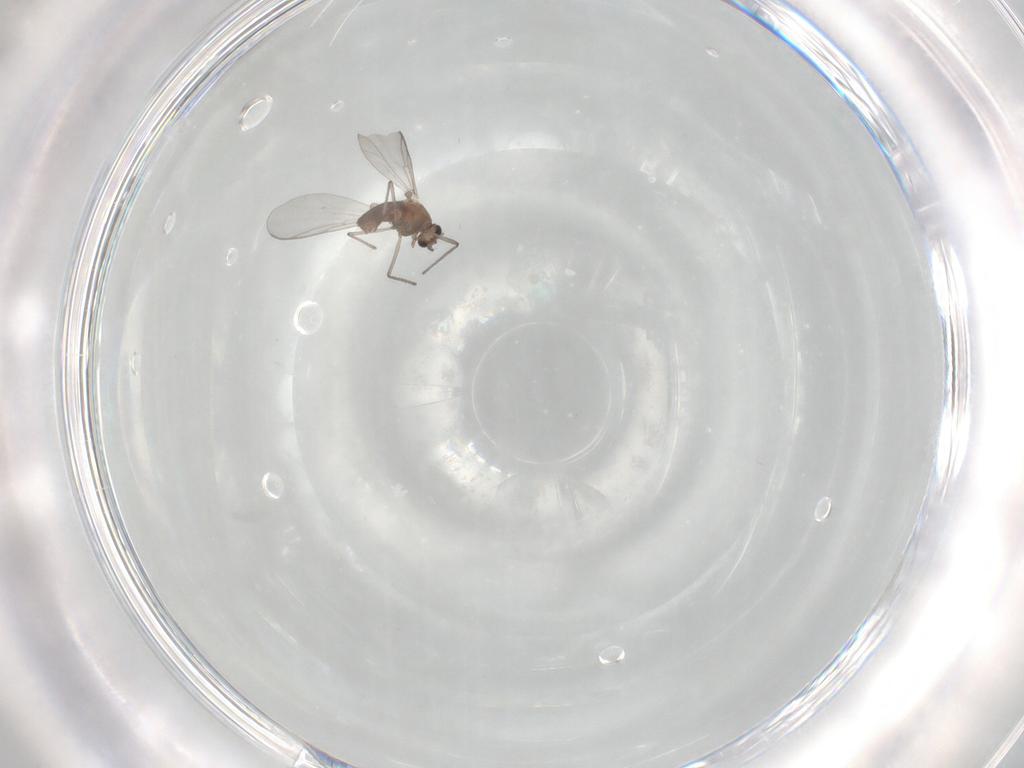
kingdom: Animalia
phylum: Arthropoda
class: Insecta
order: Diptera
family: Chironomidae
